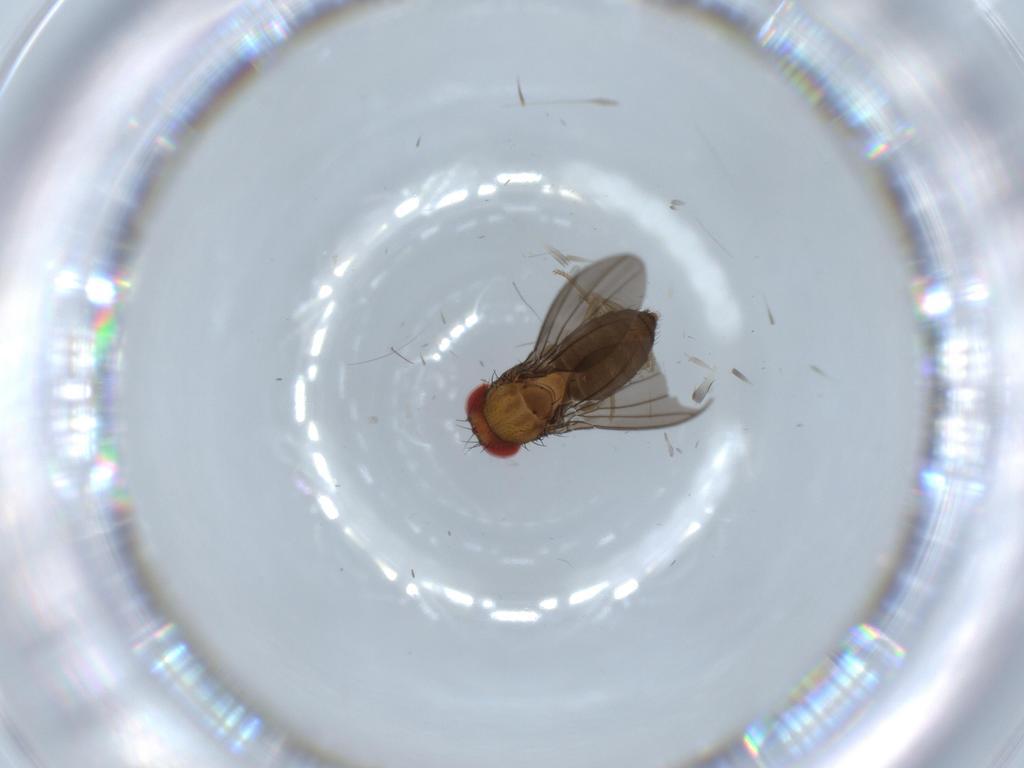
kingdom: Animalia
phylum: Arthropoda
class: Insecta
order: Diptera
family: Drosophilidae
